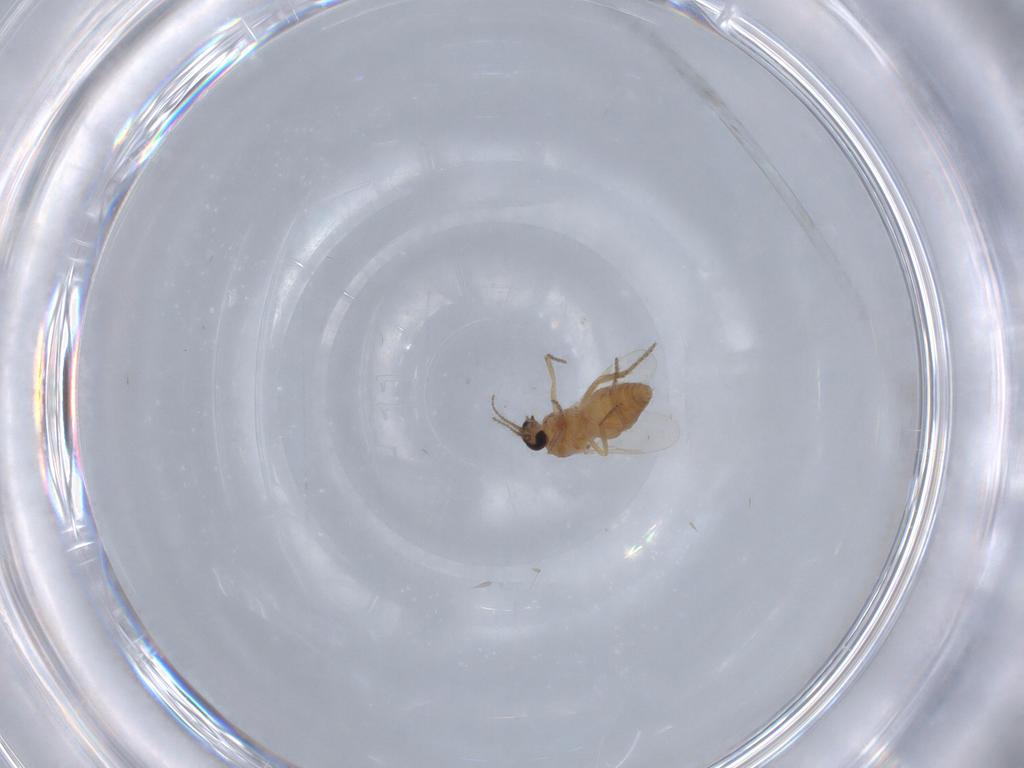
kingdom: Animalia
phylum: Arthropoda
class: Insecta
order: Diptera
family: Ceratopogonidae
